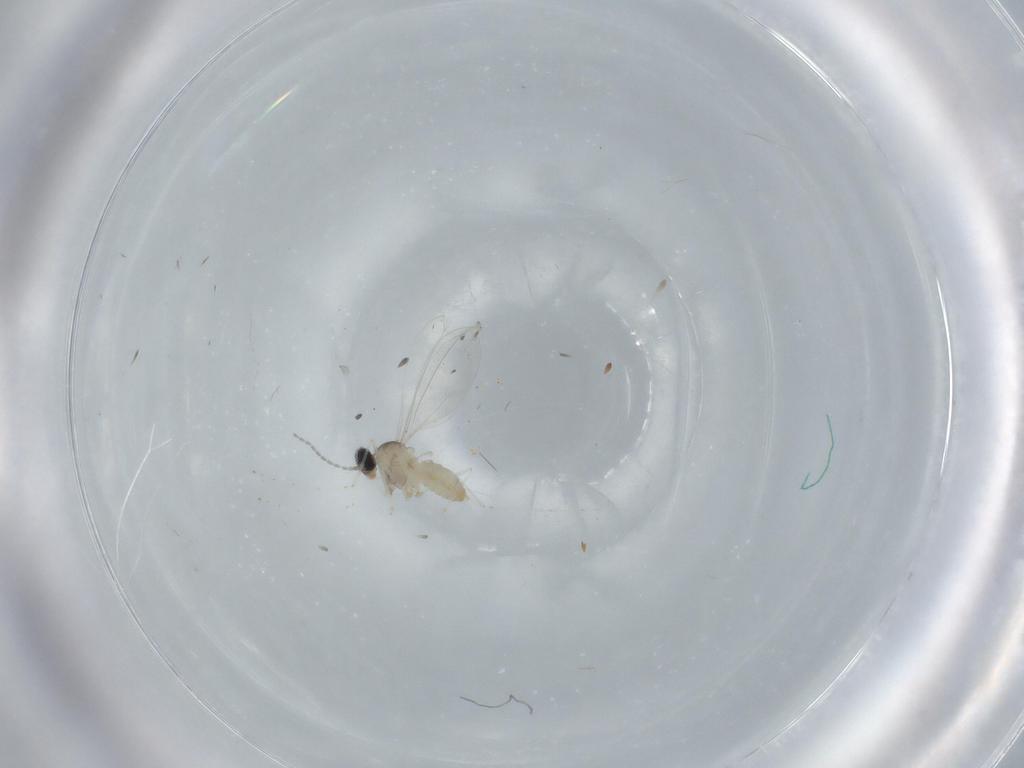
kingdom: Animalia
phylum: Arthropoda
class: Insecta
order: Diptera
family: Cecidomyiidae
